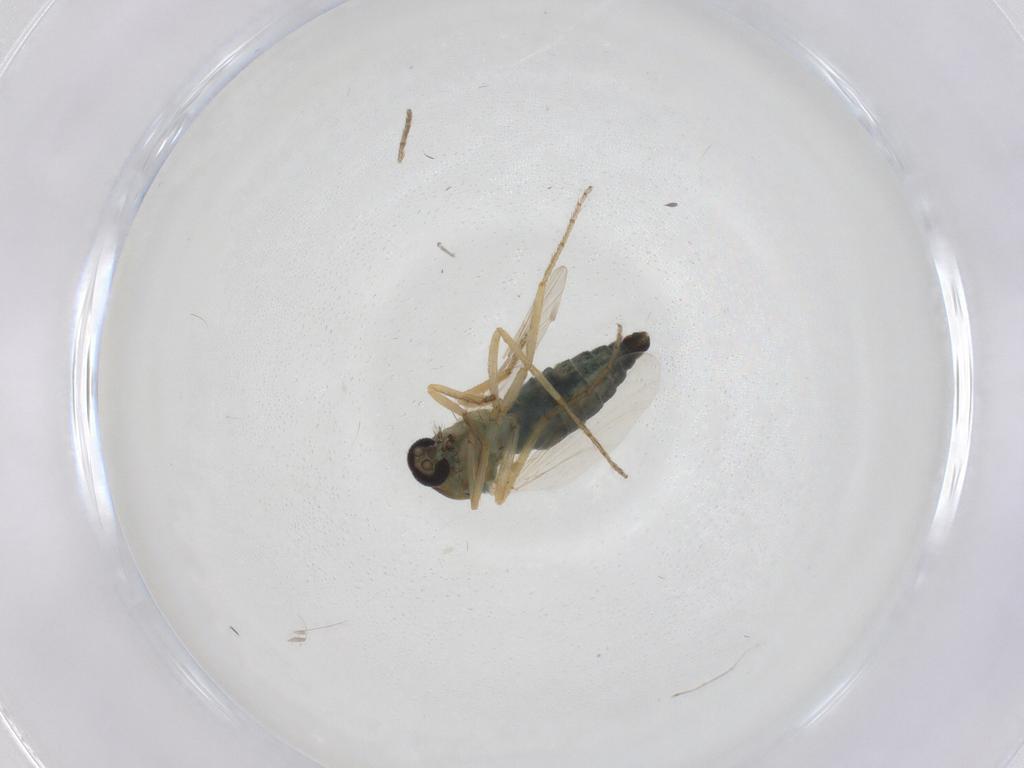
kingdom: Animalia
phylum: Arthropoda
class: Insecta
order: Diptera
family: Ceratopogonidae
